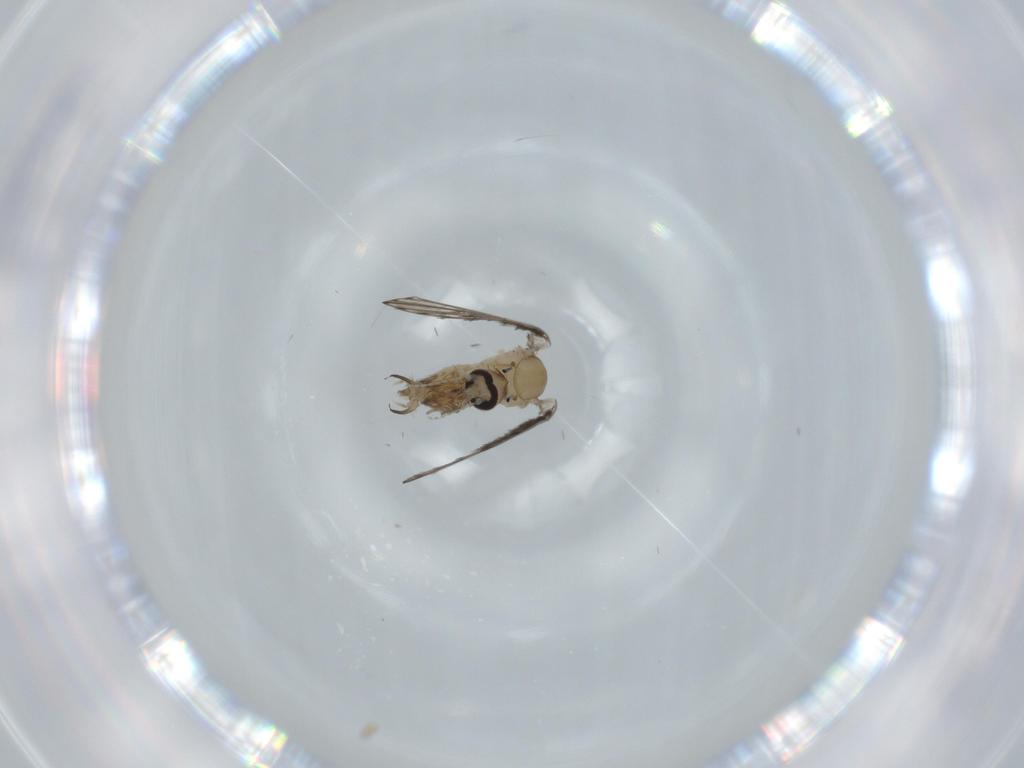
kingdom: Animalia
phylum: Arthropoda
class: Insecta
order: Diptera
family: Psychodidae
